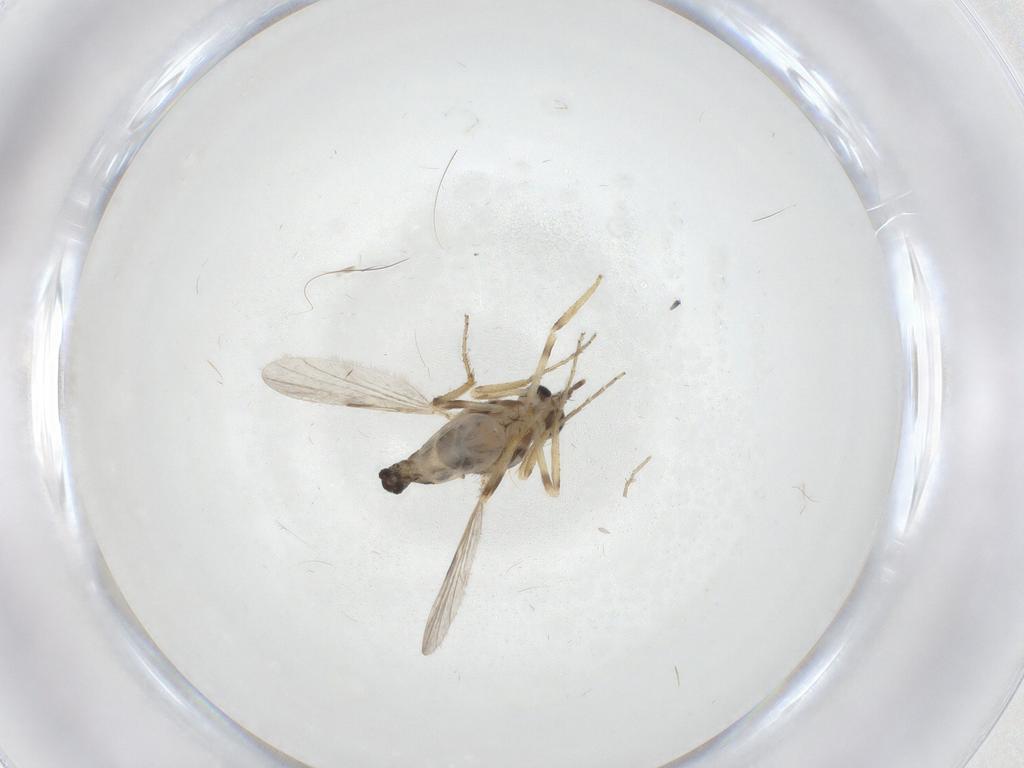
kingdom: Animalia
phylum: Arthropoda
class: Insecta
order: Diptera
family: Ceratopogonidae
